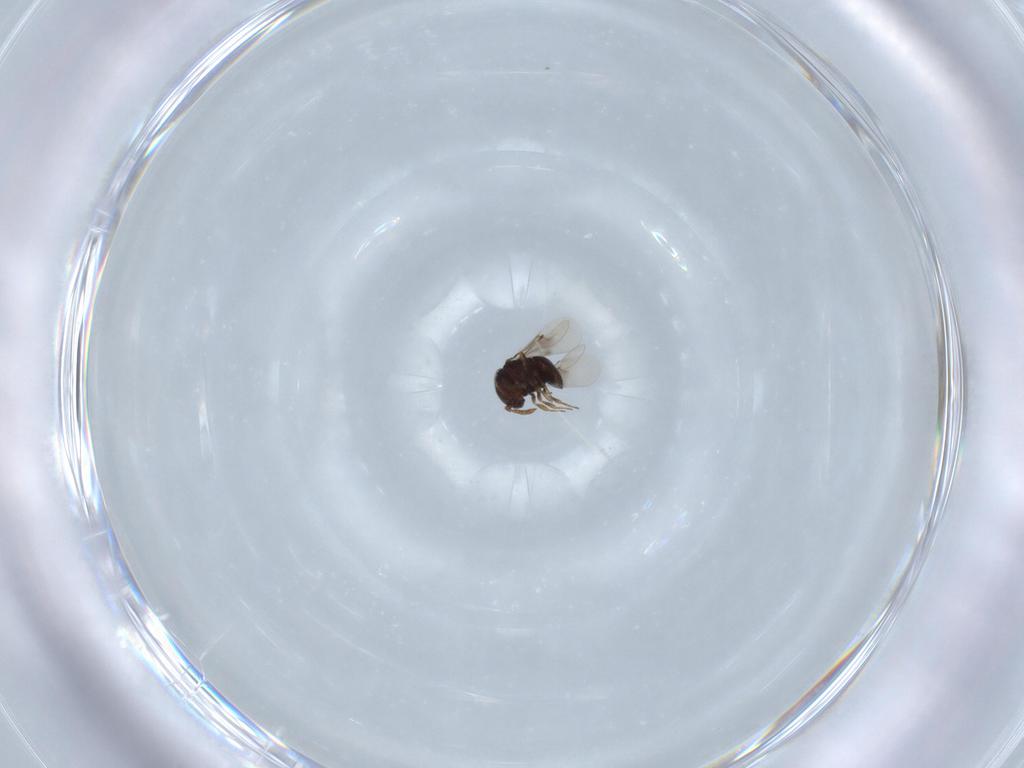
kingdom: Animalia
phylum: Arthropoda
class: Insecta
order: Hymenoptera
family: Scelionidae
